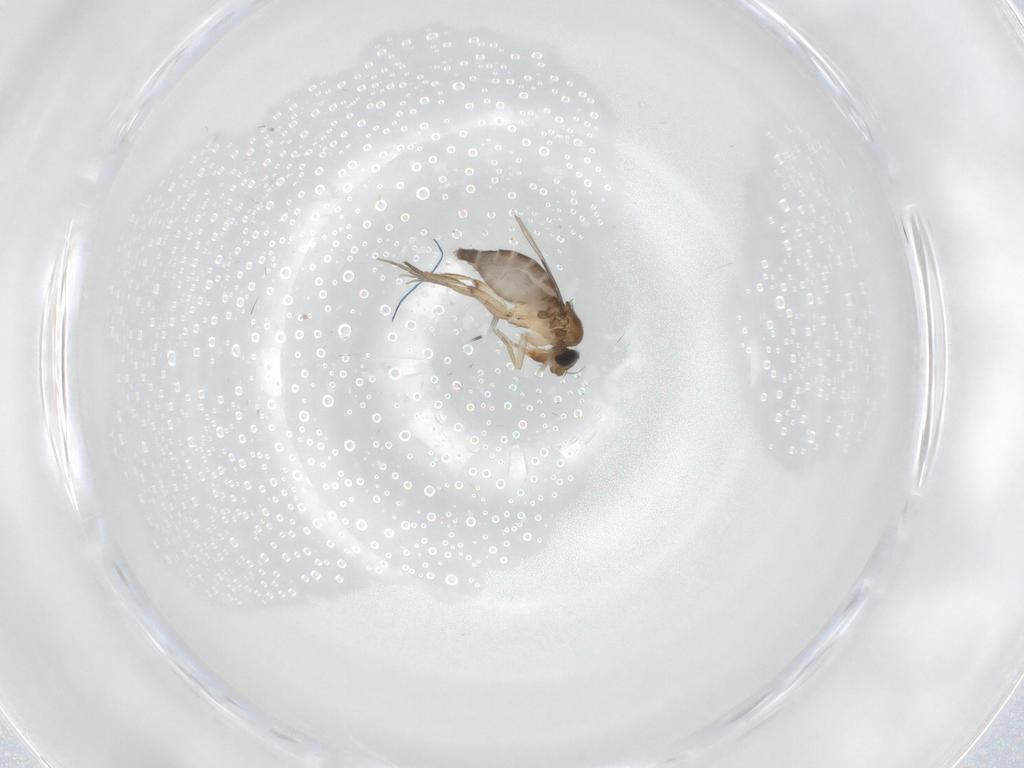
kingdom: Animalia
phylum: Arthropoda
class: Insecta
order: Diptera
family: Phoridae
